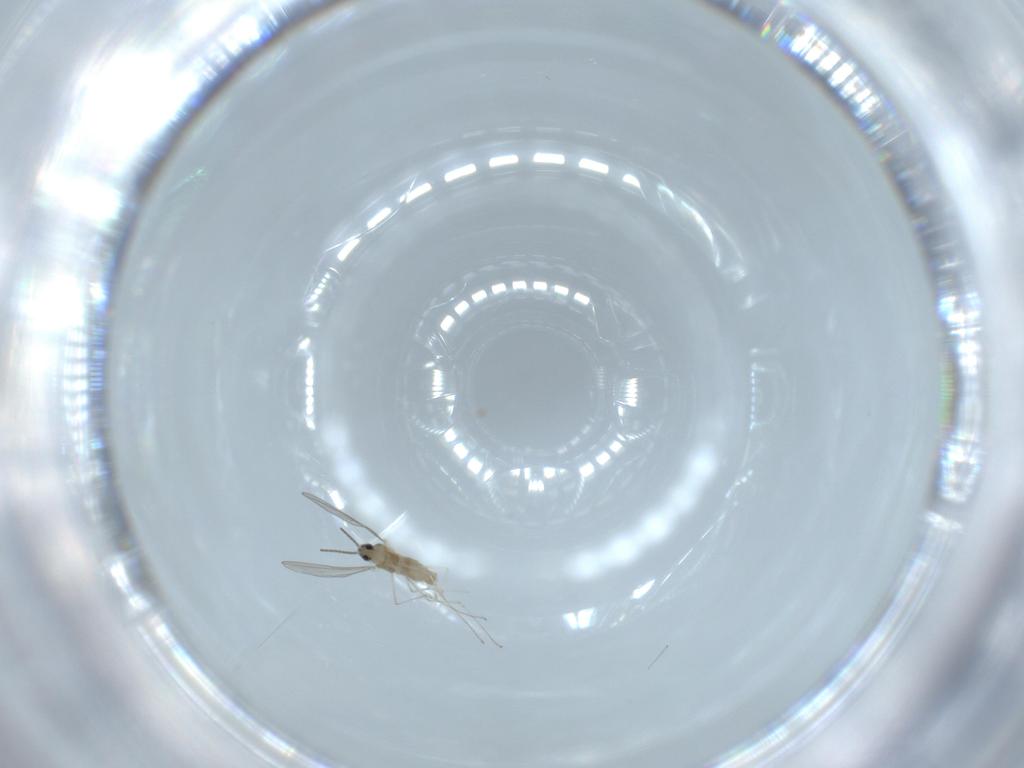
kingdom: Animalia
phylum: Arthropoda
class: Insecta
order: Diptera
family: Cecidomyiidae
